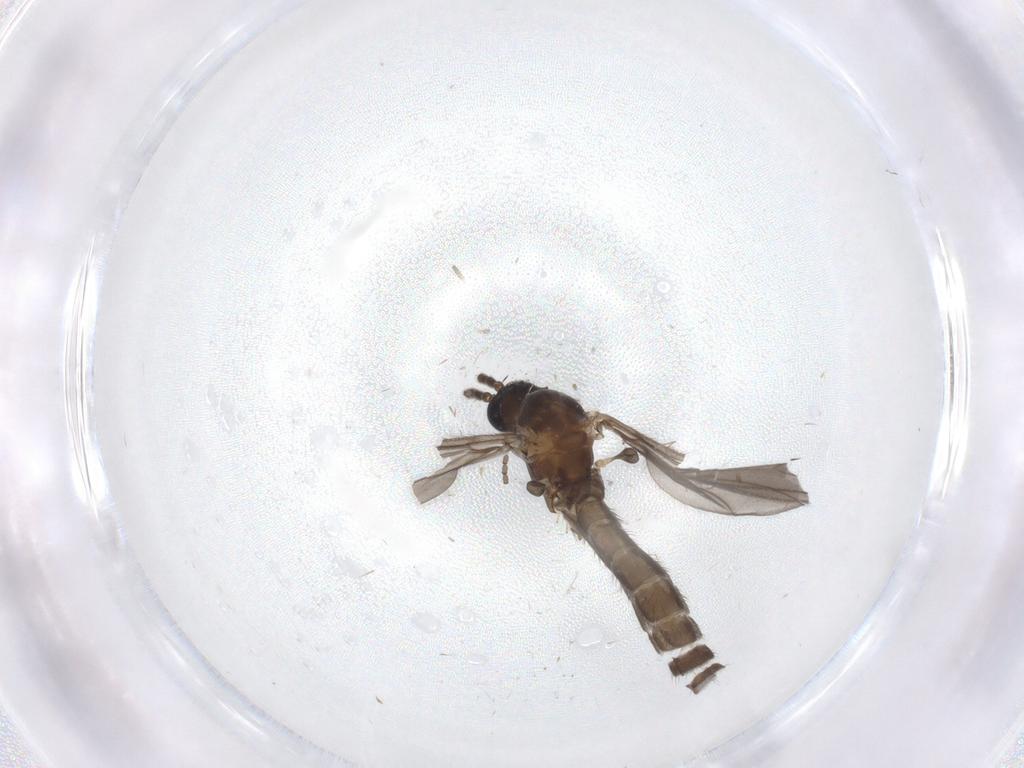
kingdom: Animalia
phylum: Arthropoda
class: Insecta
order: Diptera
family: Sciaridae
